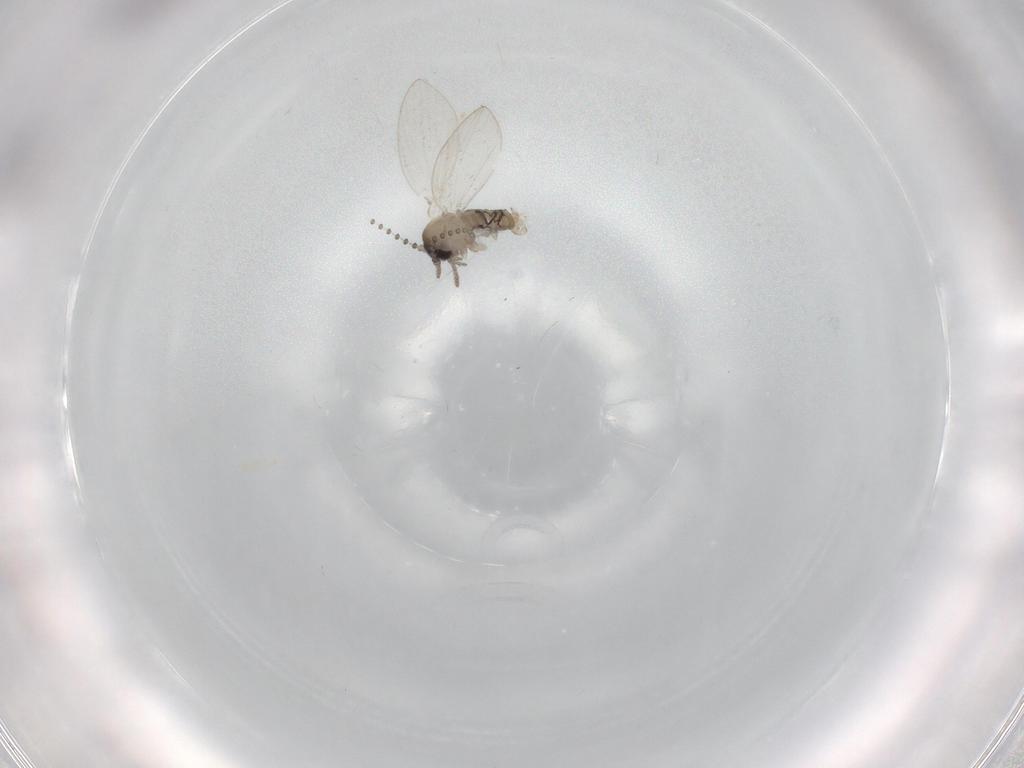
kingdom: Animalia
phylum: Arthropoda
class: Insecta
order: Diptera
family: Psychodidae
